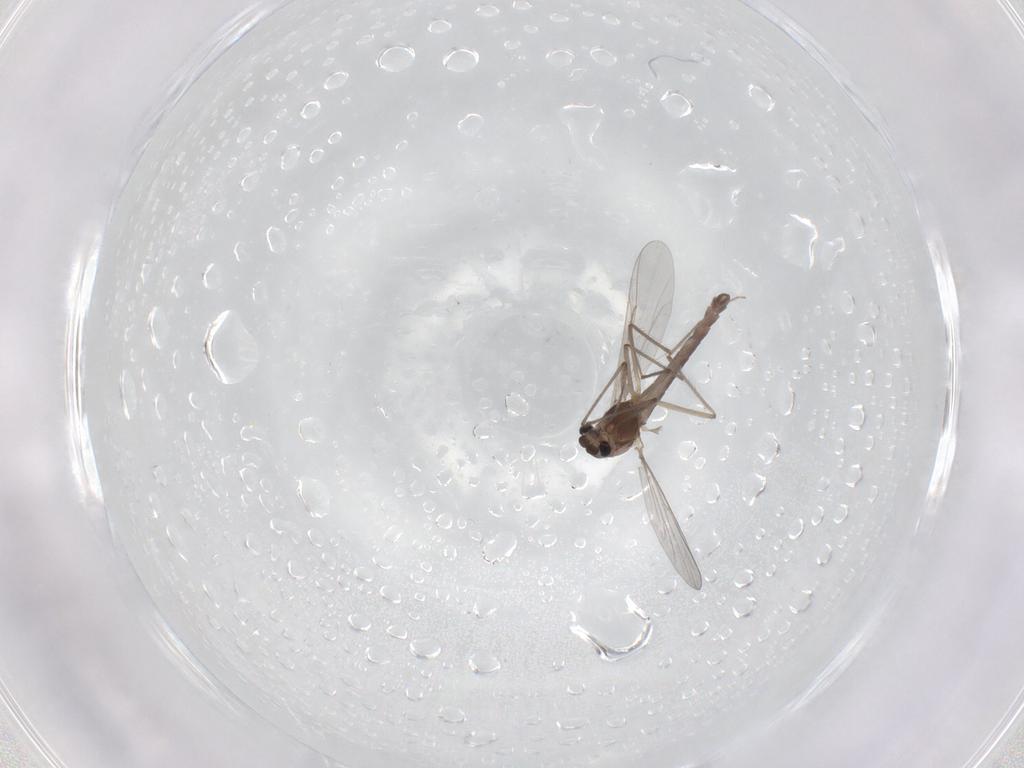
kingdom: Animalia
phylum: Arthropoda
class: Insecta
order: Diptera
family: Chironomidae
